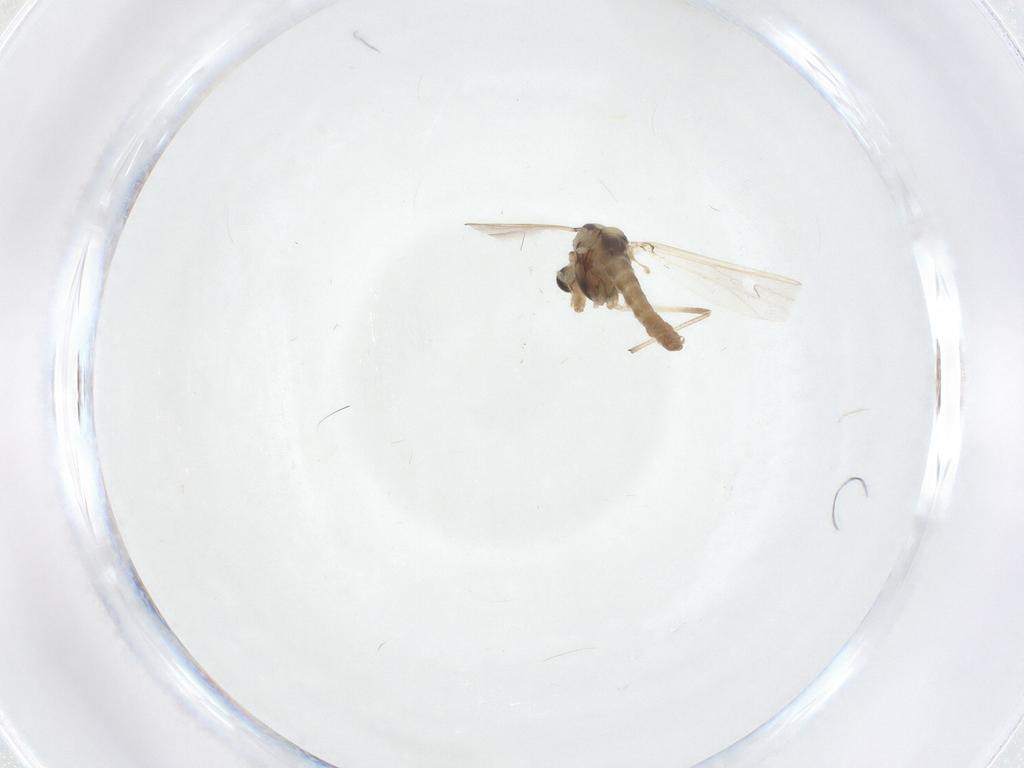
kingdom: Animalia
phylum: Arthropoda
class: Insecta
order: Diptera
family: Chironomidae
